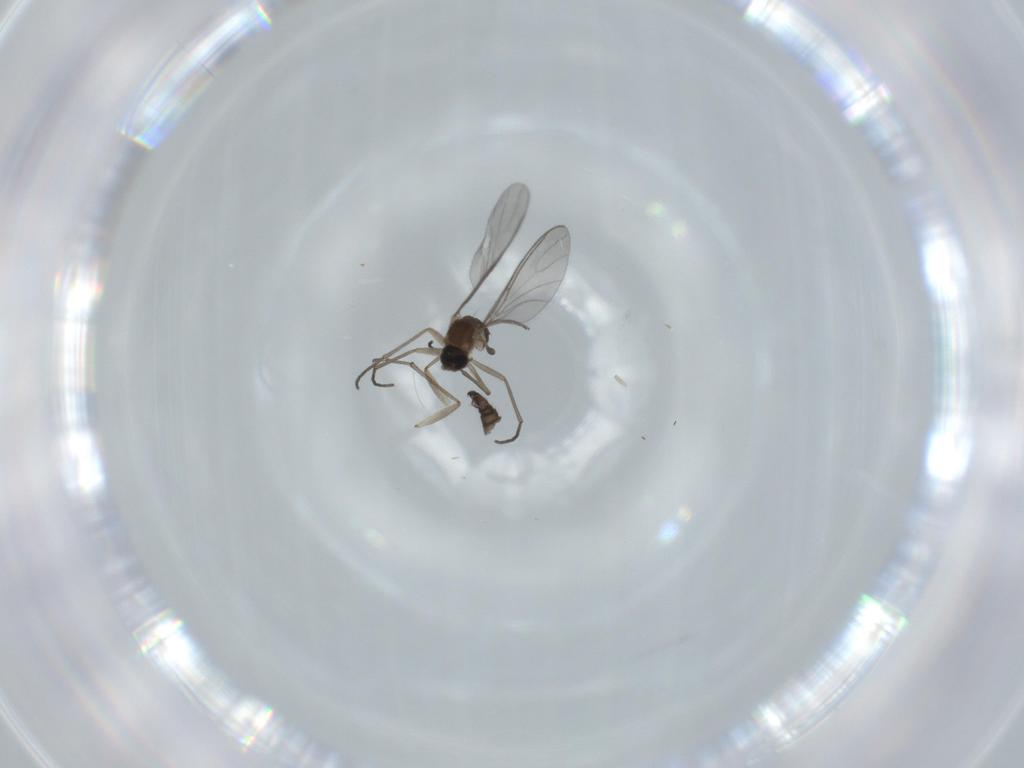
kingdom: Animalia
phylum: Arthropoda
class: Insecta
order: Diptera
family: Sciaridae
